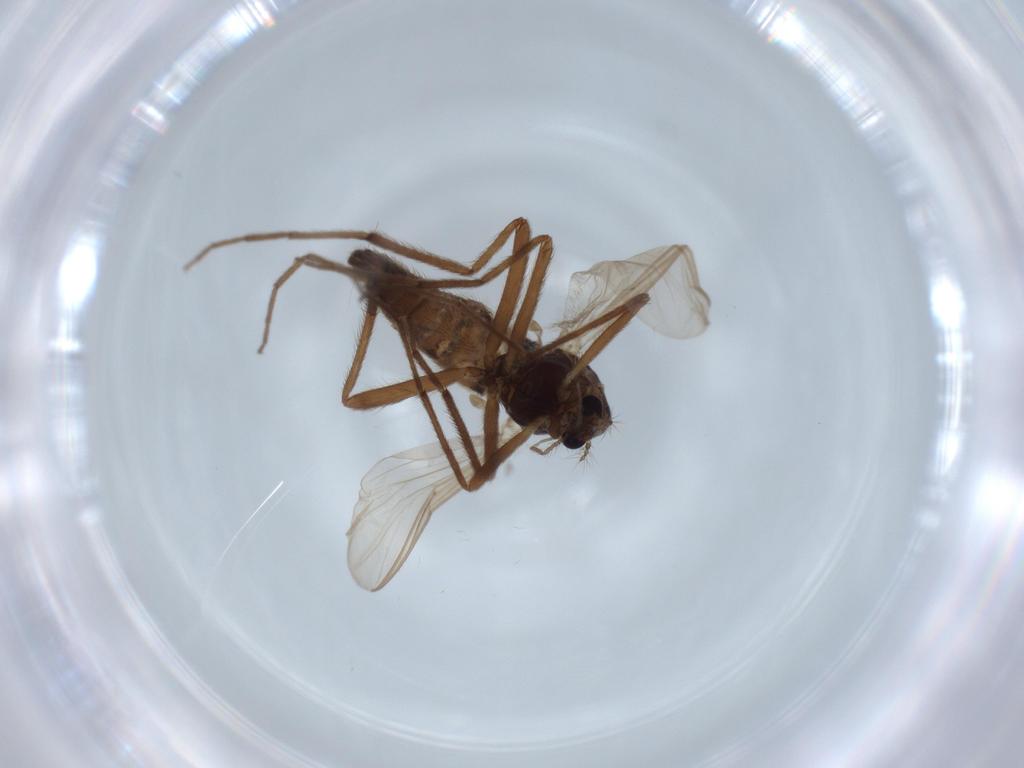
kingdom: Animalia
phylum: Arthropoda
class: Insecta
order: Diptera
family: Chironomidae
